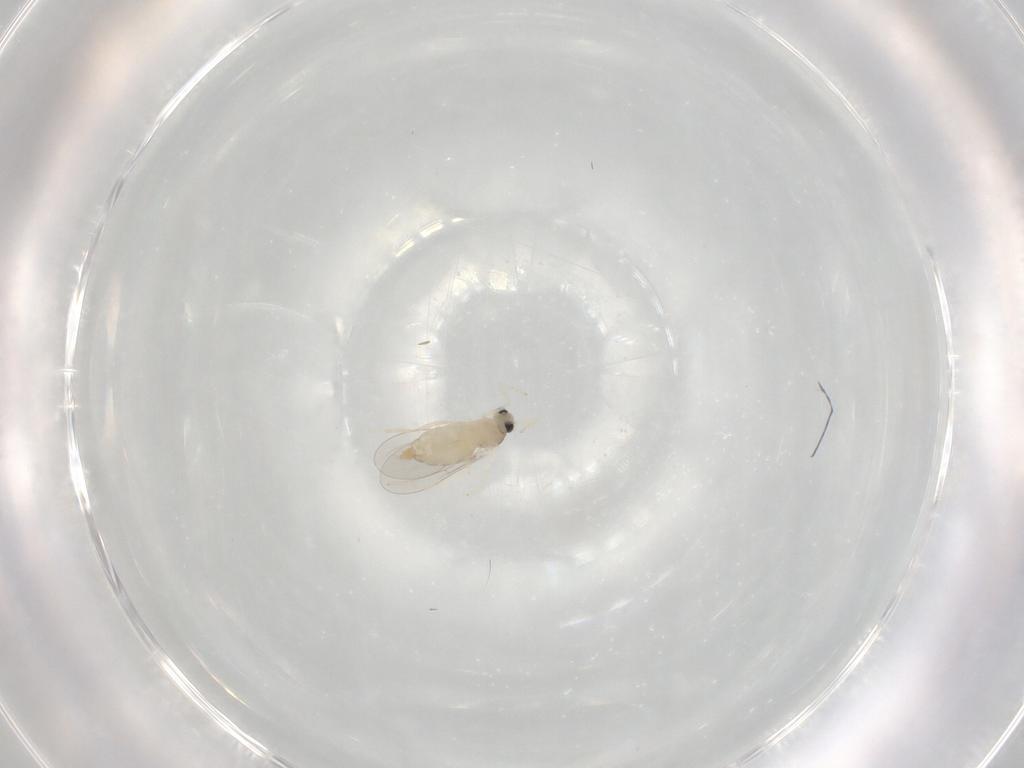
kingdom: Animalia
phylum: Arthropoda
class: Insecta
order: Diptera
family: Cecidomyiidae
